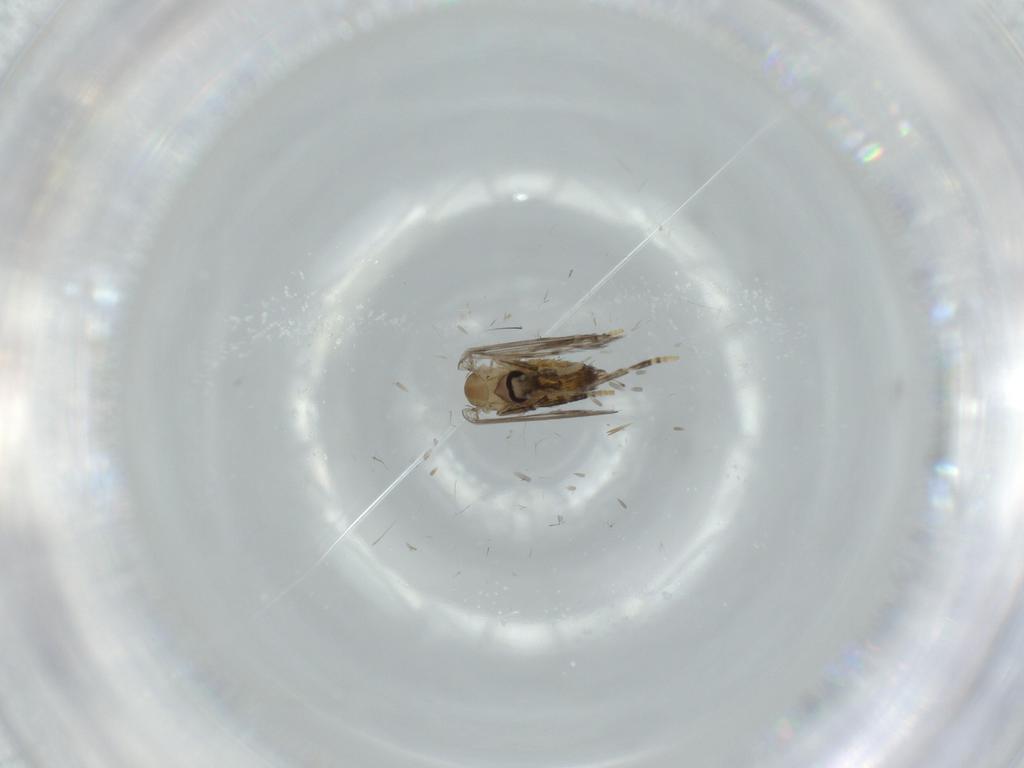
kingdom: Animalia
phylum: Arthropoda
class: Insecta
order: Diptera
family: Psychodidae
